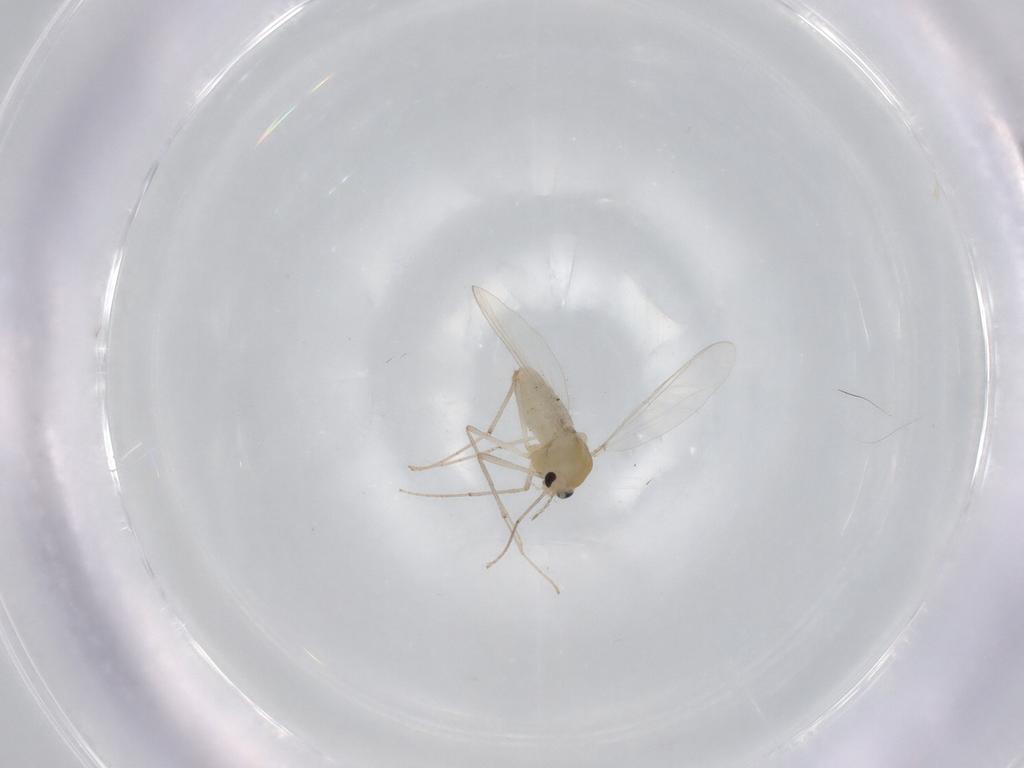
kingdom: Animalia
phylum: Arthropoda
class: Insecta
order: Diptera
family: Chironomidae
